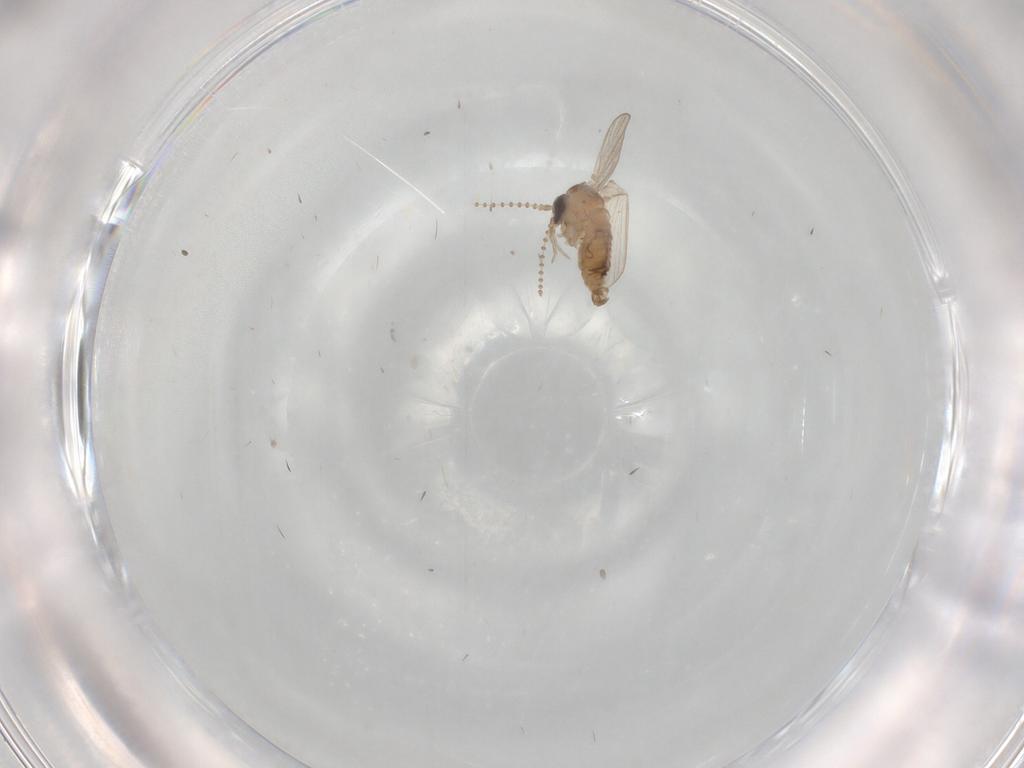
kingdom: Animalia
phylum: Arthropoda
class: Insecta
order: Diptera
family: Psychodidae
